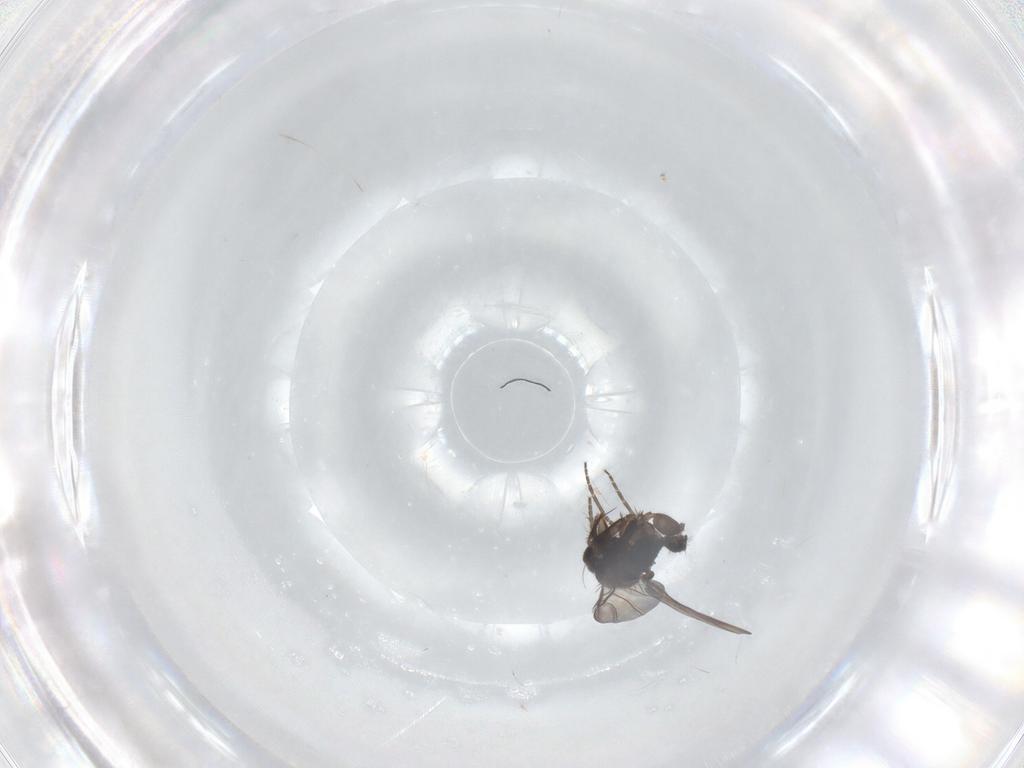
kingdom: Animalia
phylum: Arthropoda
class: Insecta
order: Diptera
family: Phoridae
